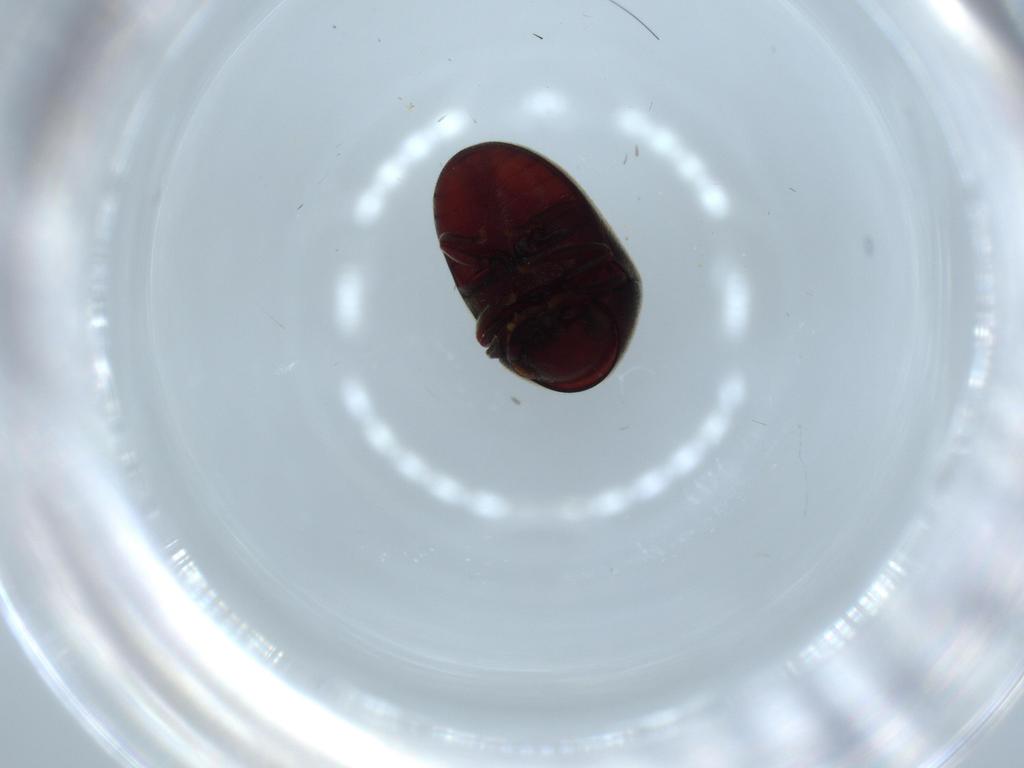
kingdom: Animalia
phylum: Arthropoda
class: Insecta
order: Coleoptera
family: Ptinidae
